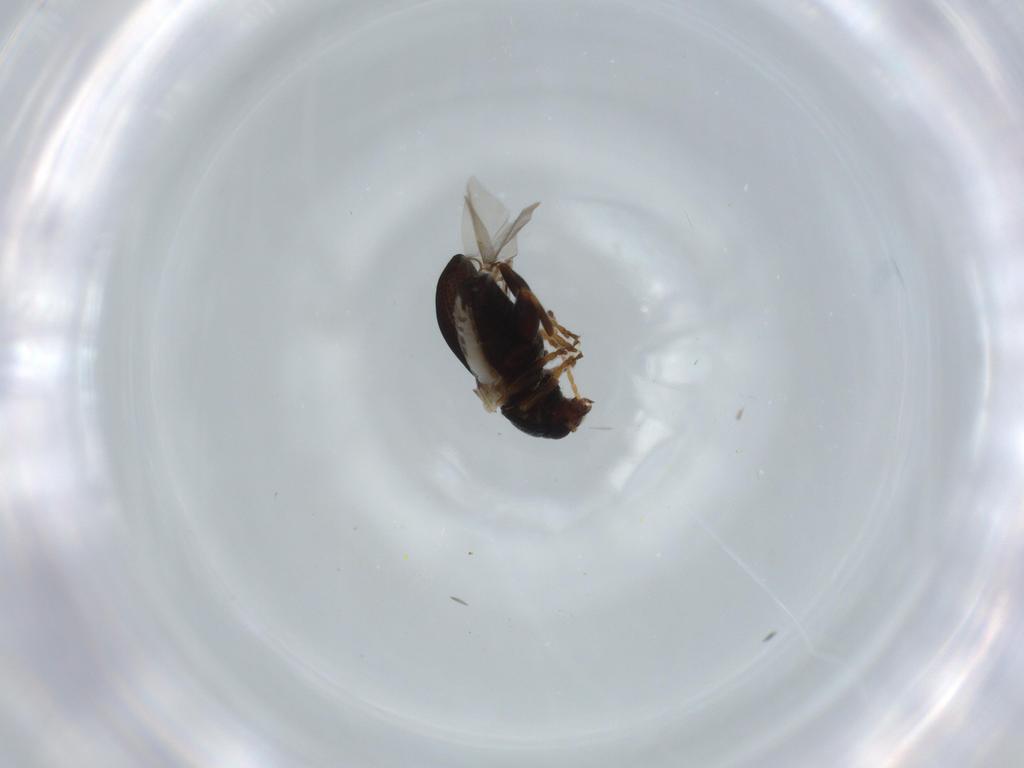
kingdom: Animalia
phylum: Arthropoda
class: Insecta
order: Coleoptera
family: Chrysomelidae
